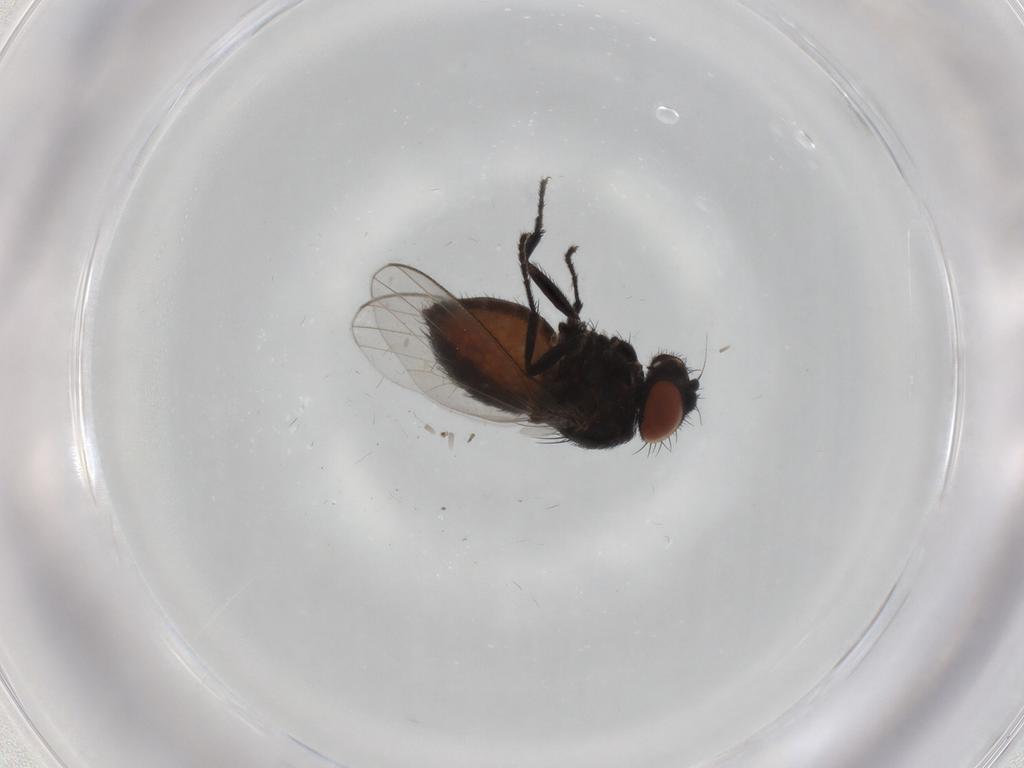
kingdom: Animalia
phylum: Arthropoda
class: Insecta
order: Diptera
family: Milichiidae
